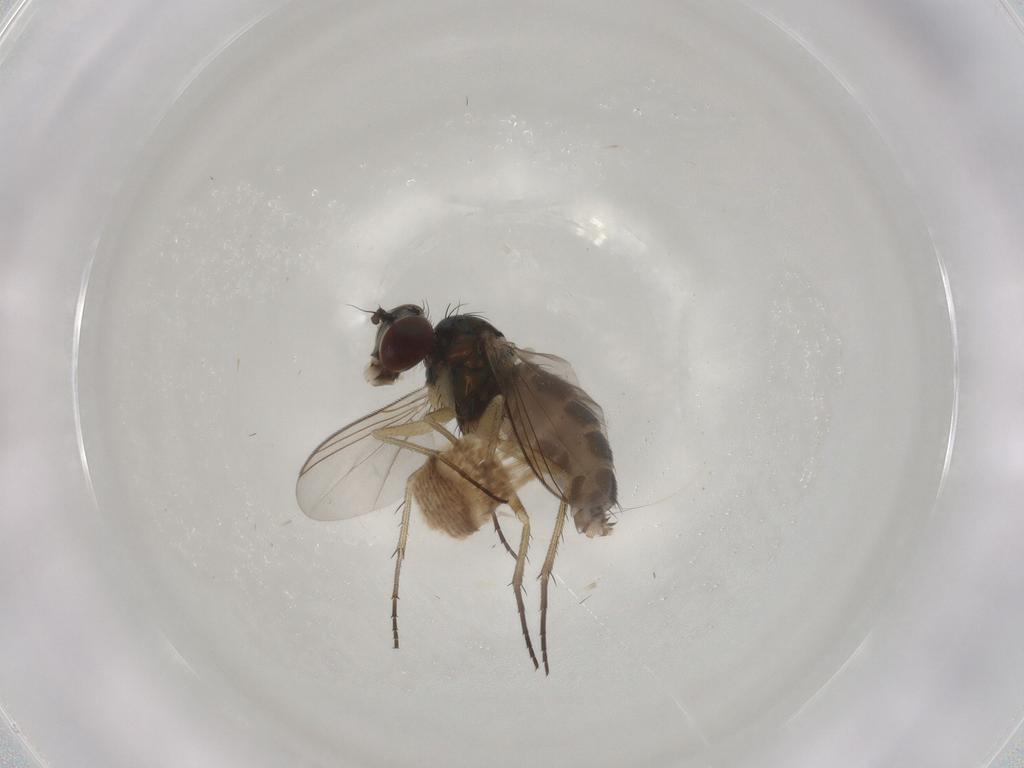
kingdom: Animalia
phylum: Arthropoda
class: Insecta
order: Diptera
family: Dolichopodidae
